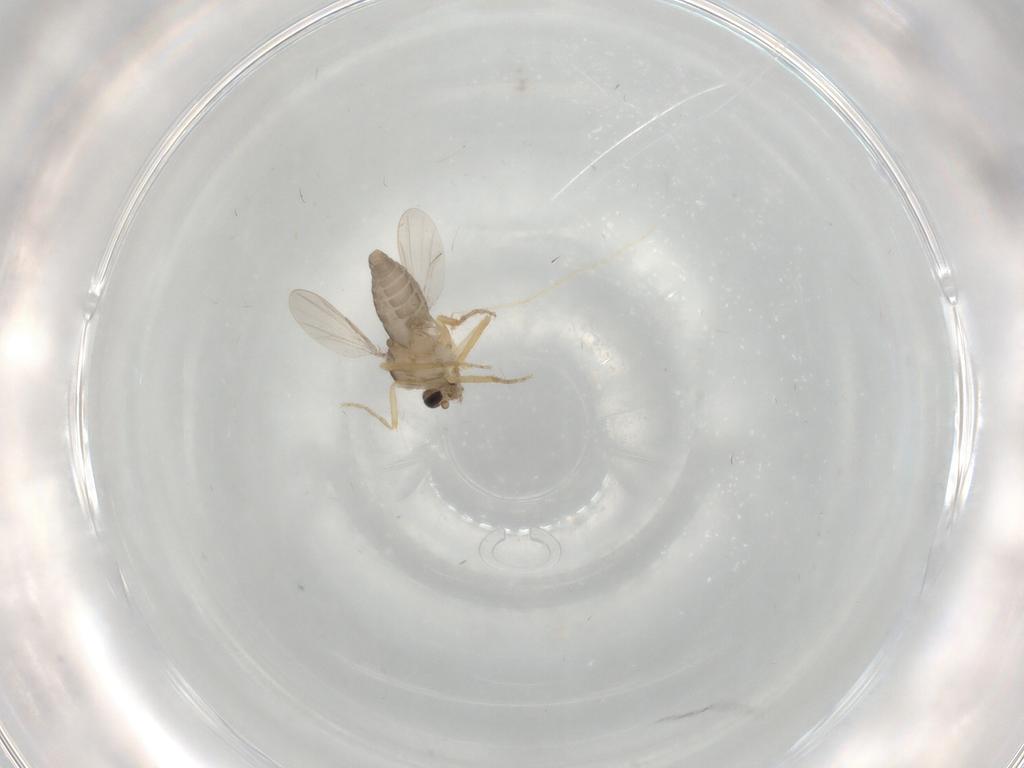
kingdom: Animalia
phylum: Arthropoda
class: Insecta
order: Diptera
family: Ceratopogonidae
